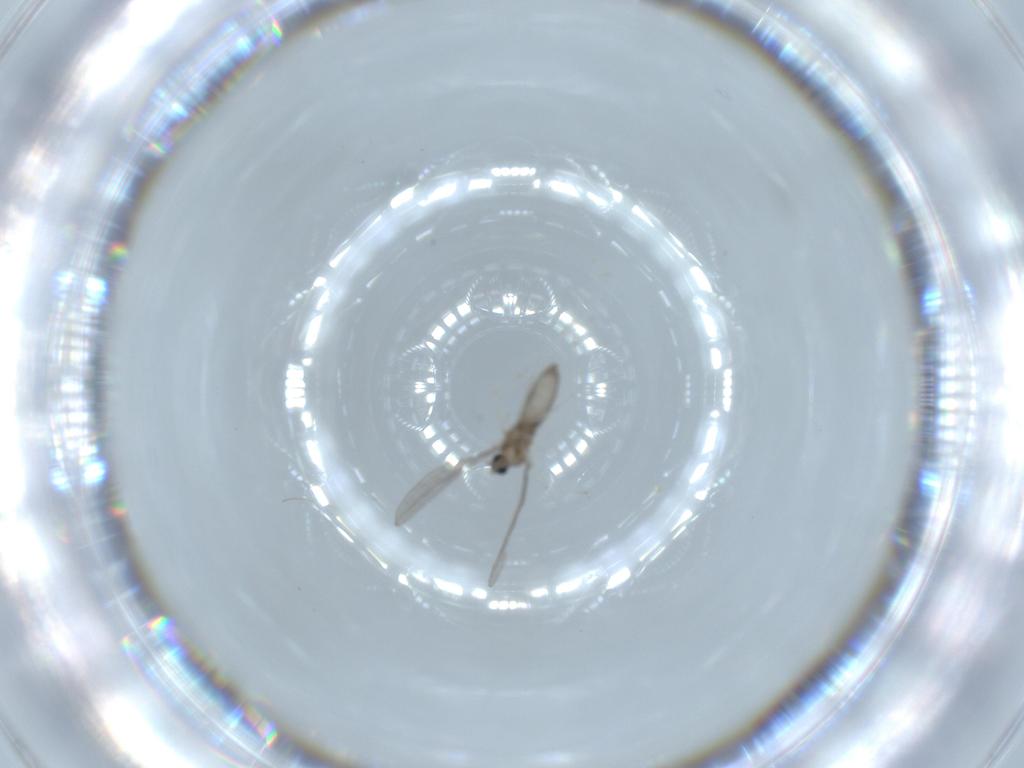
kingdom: Animalia
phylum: Arthropoda
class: Insecta
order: Diptera
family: Cecidomyiidae
